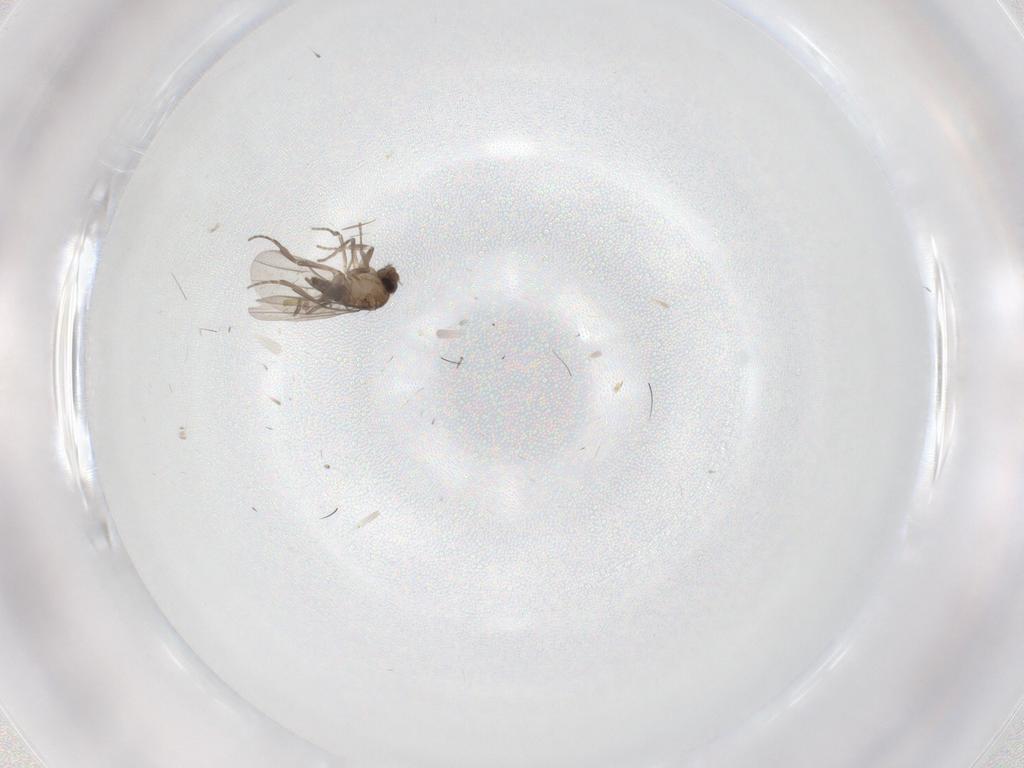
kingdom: Animalia
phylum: Arthropoda
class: Insecta
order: Diptera
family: Sciaridae
